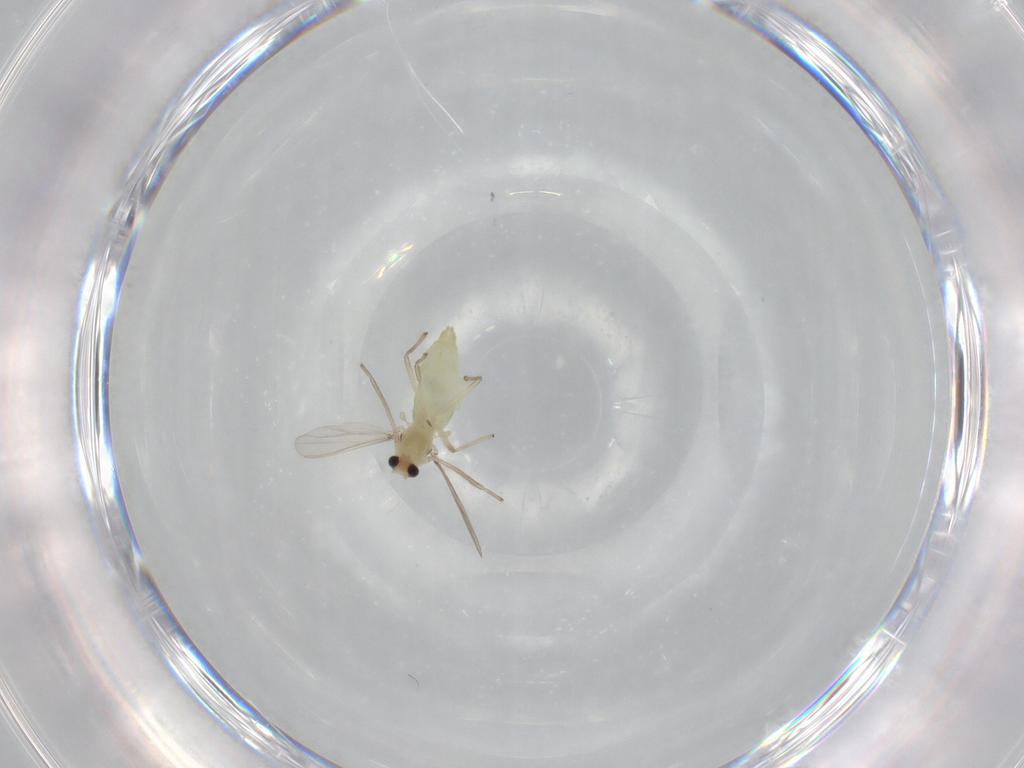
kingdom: Animalia
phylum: Arthropoda
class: Insecta
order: Diptera
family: Chironomidae
